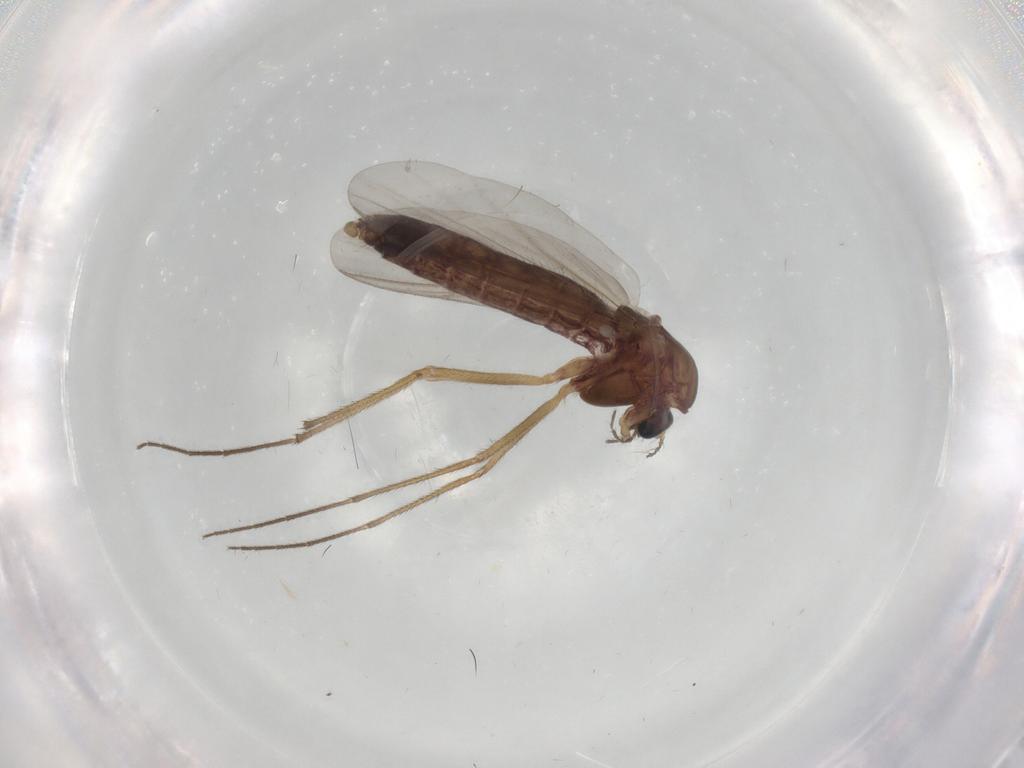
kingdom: Animalia
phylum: Arthropoda
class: Insecta
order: Diptera
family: Chironomidae
